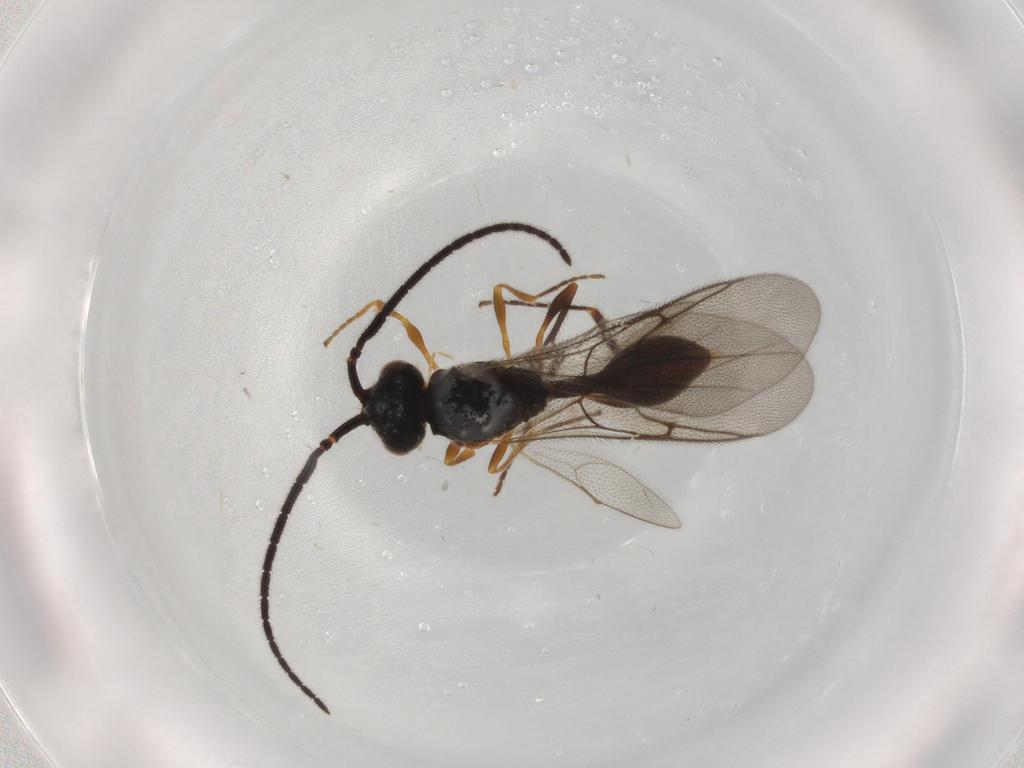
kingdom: Animalia
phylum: Arthropoda
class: Insecta
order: Hymenoptera
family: Diapriidae
